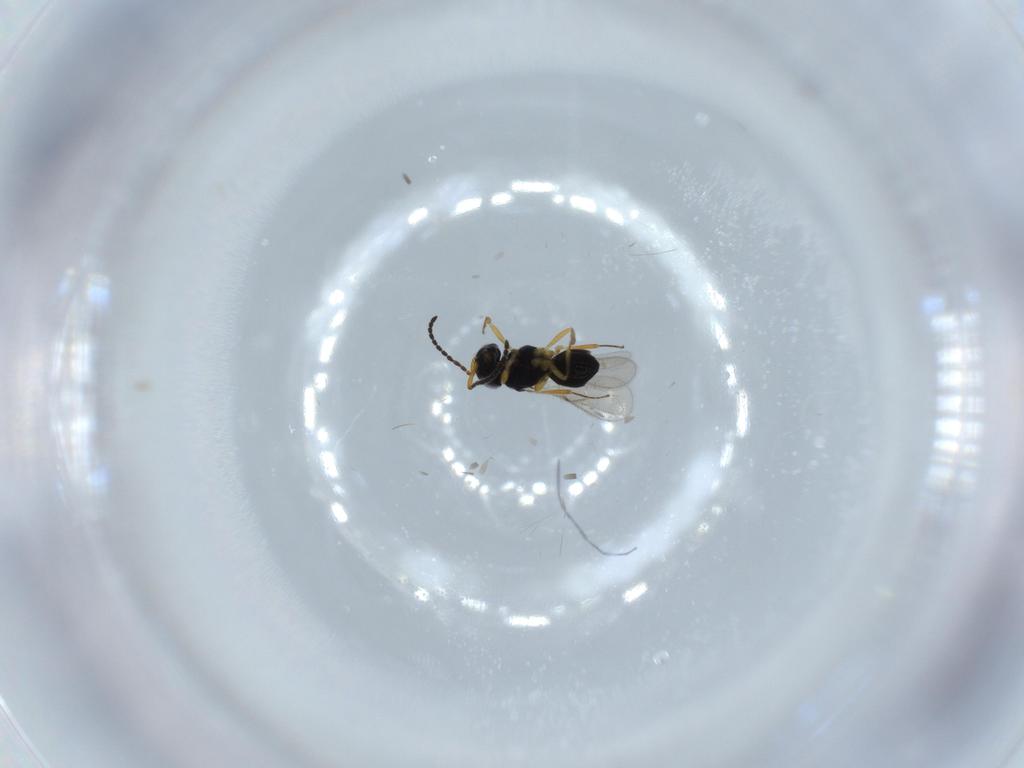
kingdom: Animalia
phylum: Arthropoda
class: Insecta
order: Hymenoptera
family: Scelionidae
